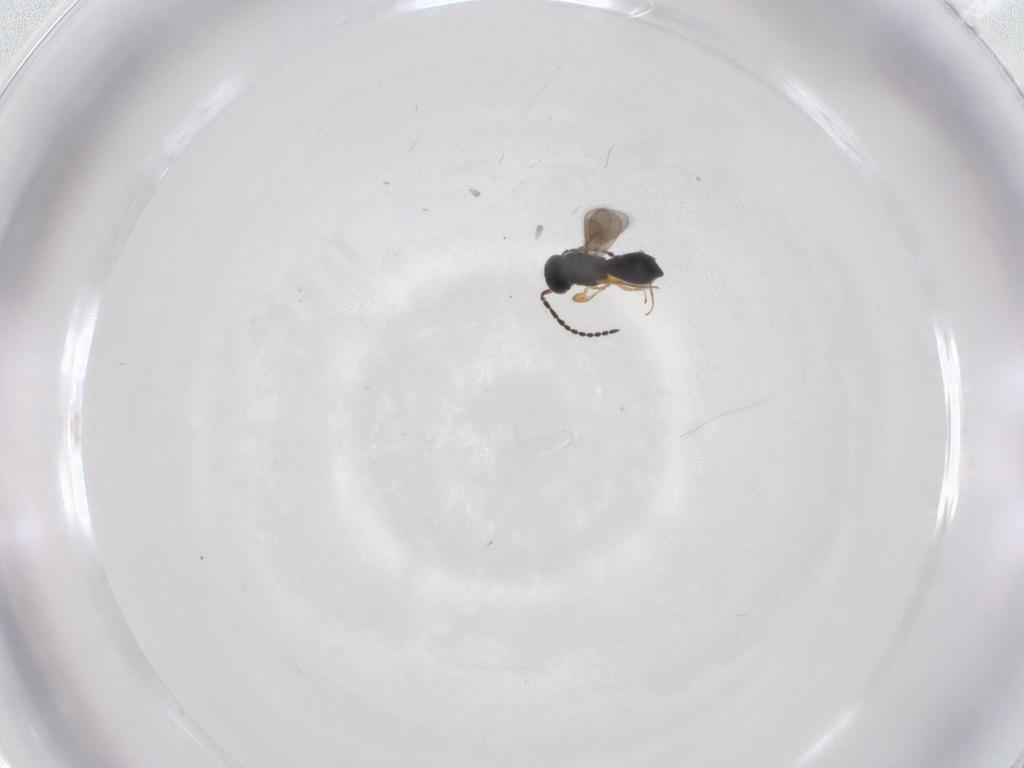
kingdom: Animalia
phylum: Arthropoda
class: Insecta
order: Hymenoptera
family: Scelionidae
